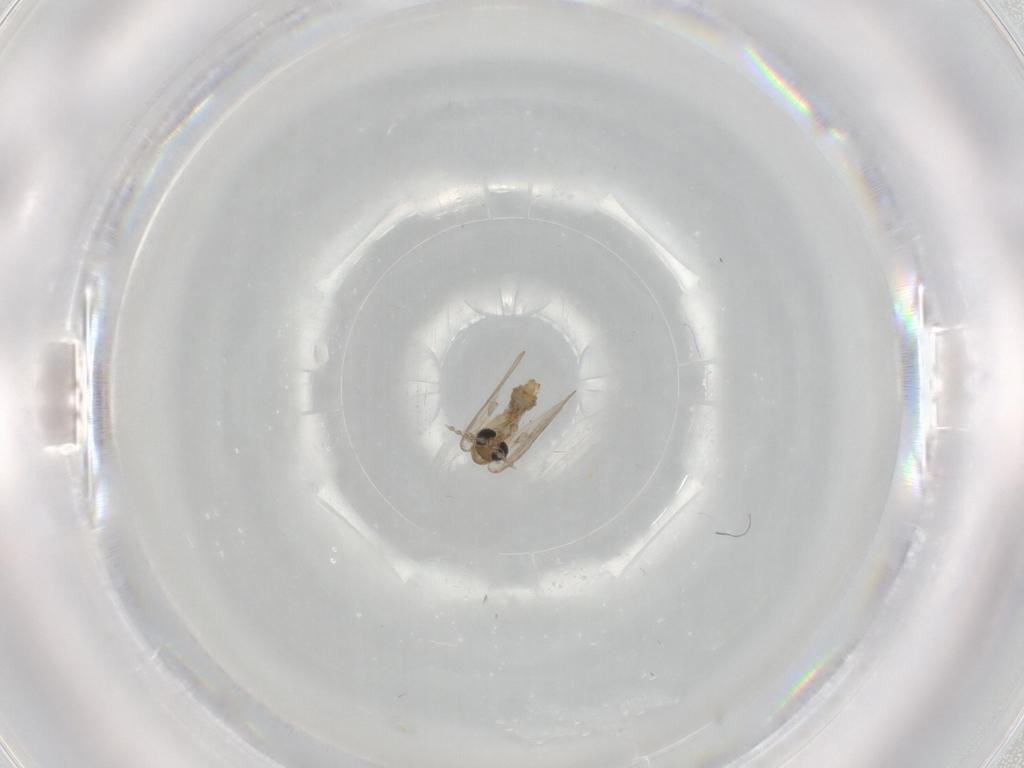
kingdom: Animalia
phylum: Arthropoda
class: Insecta
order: Diptera
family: Psychodidae
